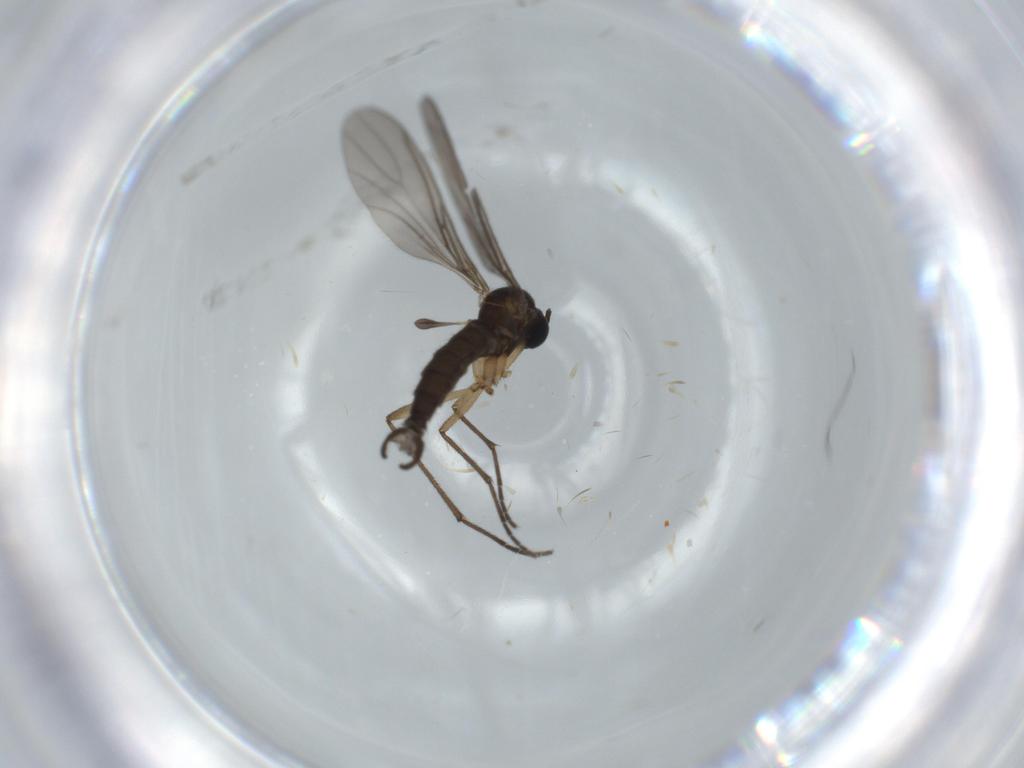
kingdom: Animalia
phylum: Arthropoda
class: Insecta
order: Diptera
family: Sciaridae
